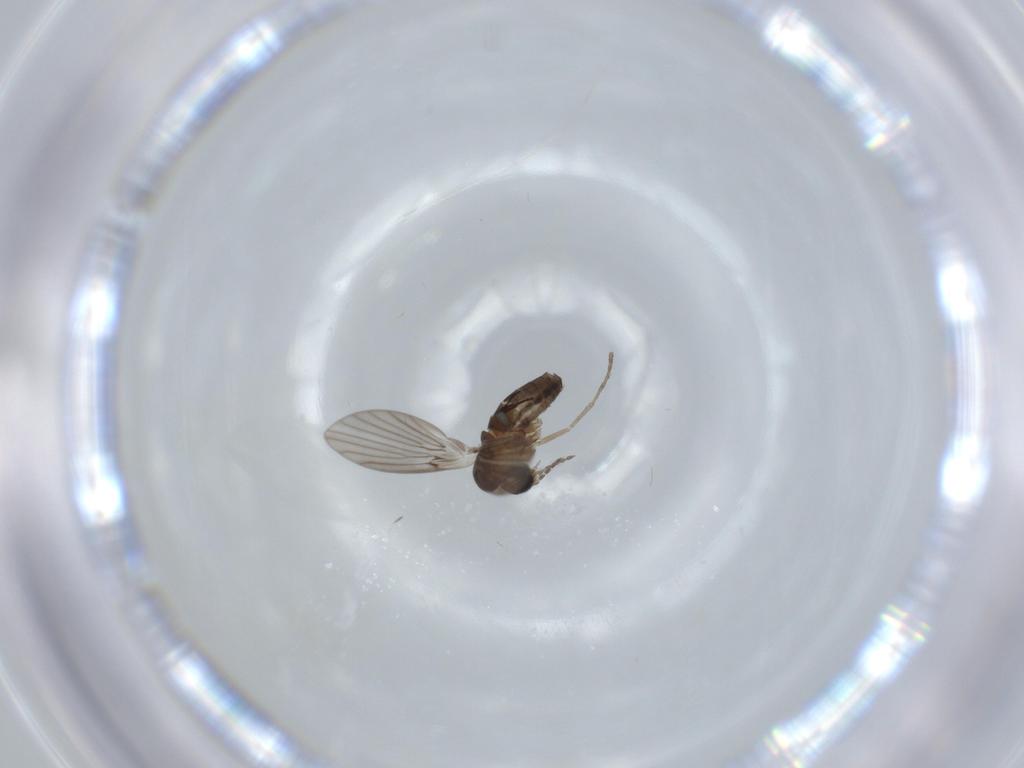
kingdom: Animalia
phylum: Arthropoda
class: Insecta
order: Diptera
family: Psychodidae
